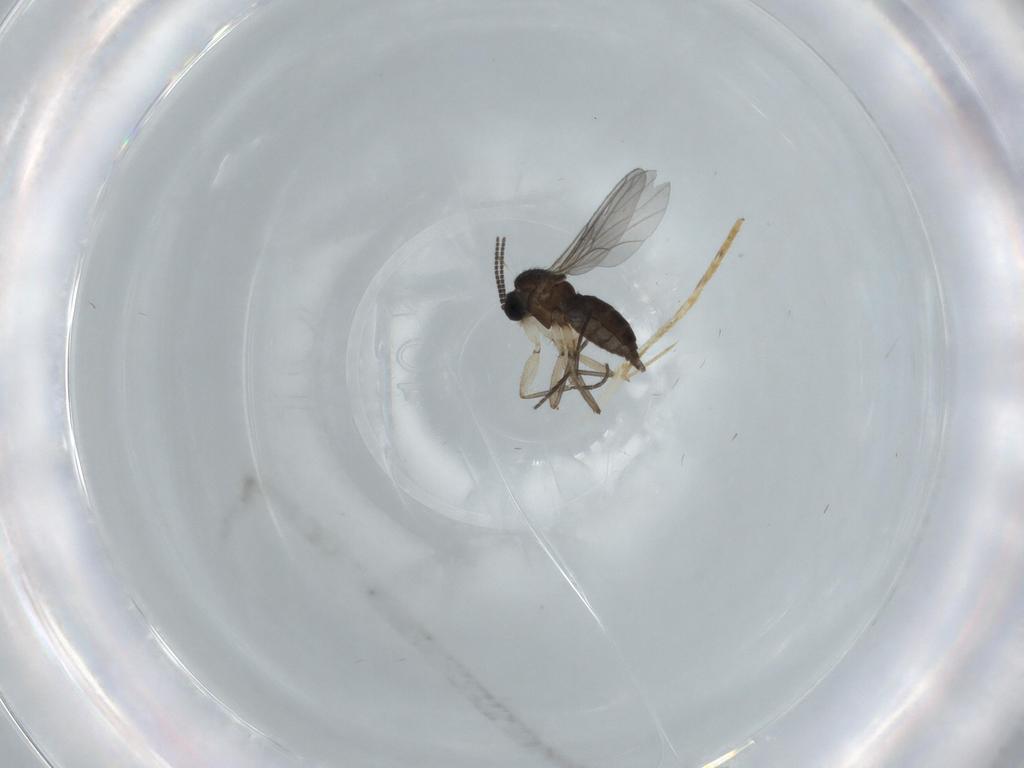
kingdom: Animalia
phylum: Arthropoda
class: Insecta
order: Diptera
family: Sciaridae
